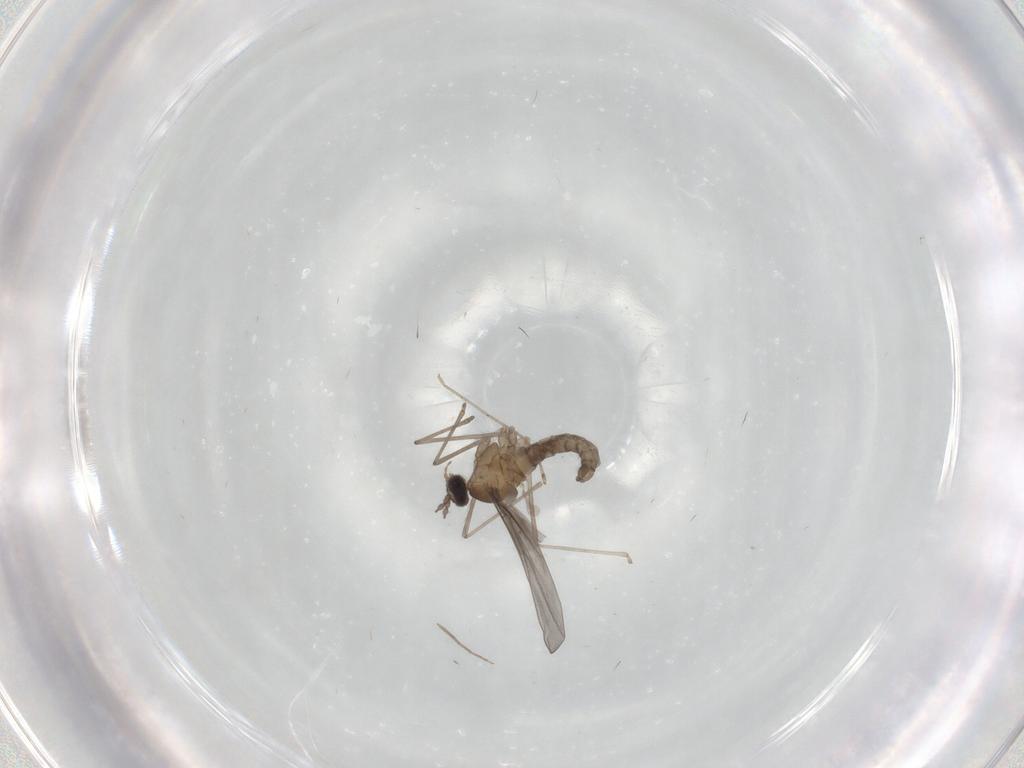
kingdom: Animalia
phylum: Arthropoda
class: Insecta
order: Diptera
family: Cecidomyiidae
